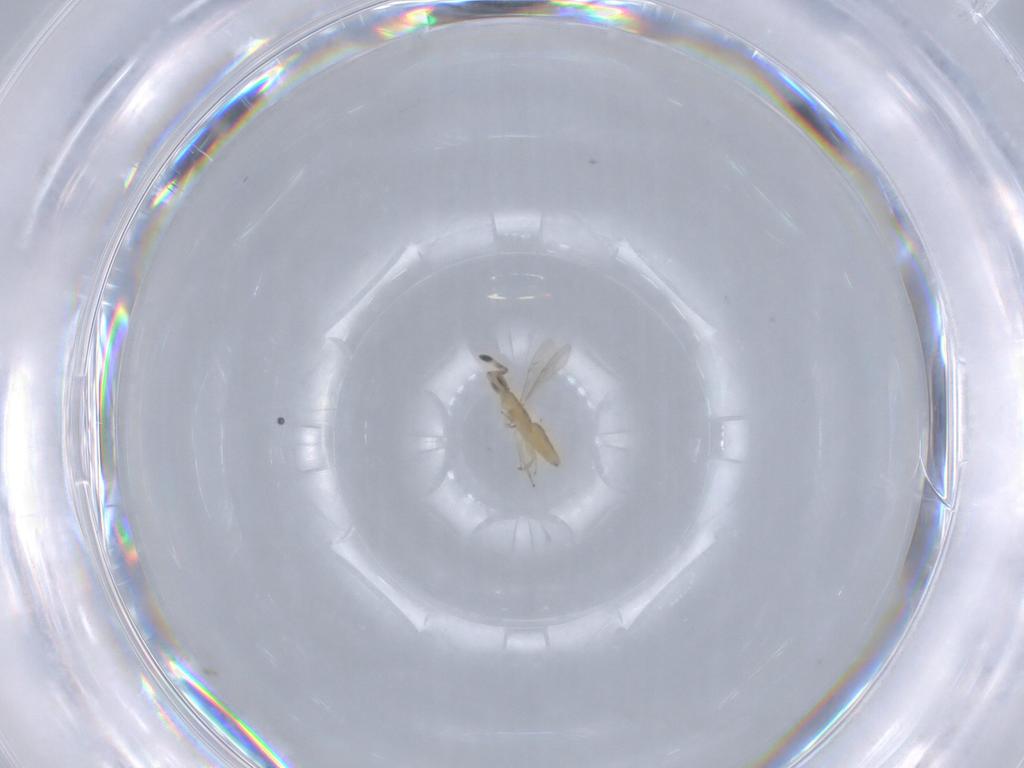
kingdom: Animalia
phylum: Arthropoda
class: Insecta
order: Hymenoptera
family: Encyrtidae
